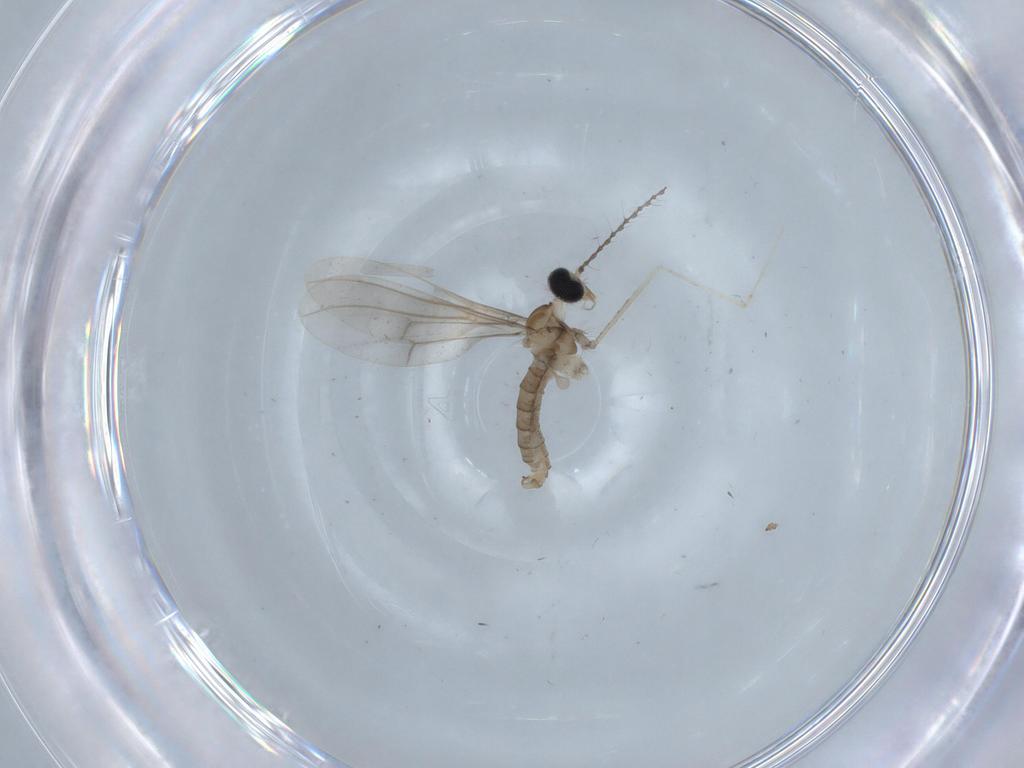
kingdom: Animalia
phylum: Arthropoda
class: Insecta
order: Diptera
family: Cecidomyiidae
